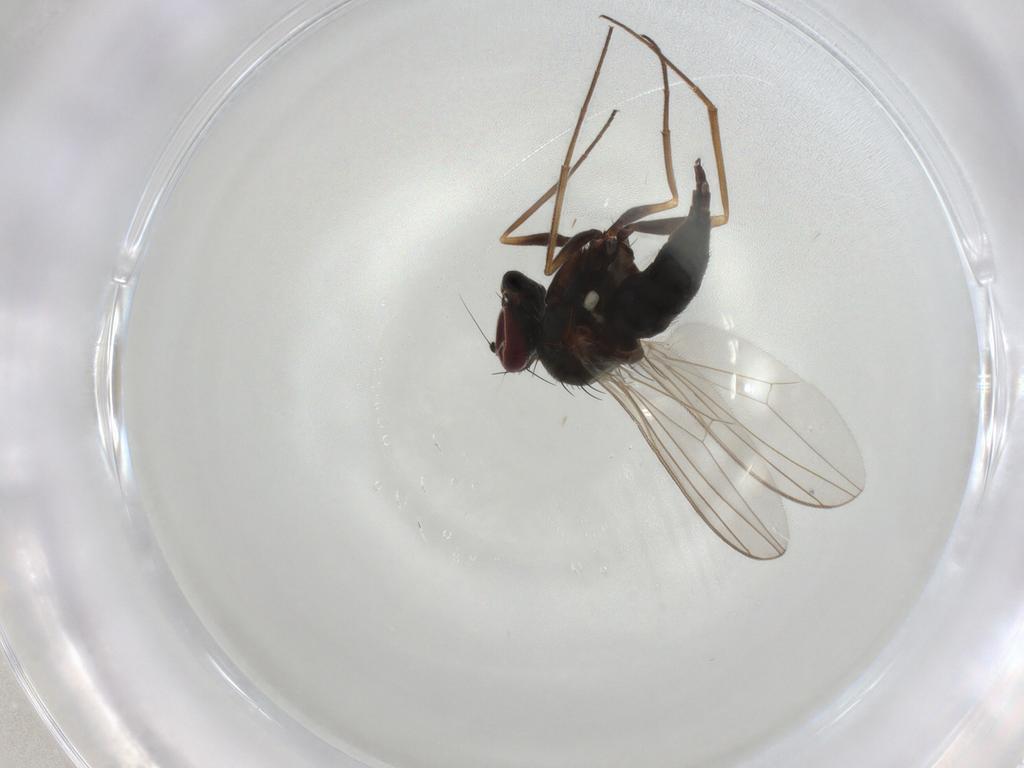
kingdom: Animalia
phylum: Arthropoda
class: Insecta
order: Diptera
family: Dolichopodidae
